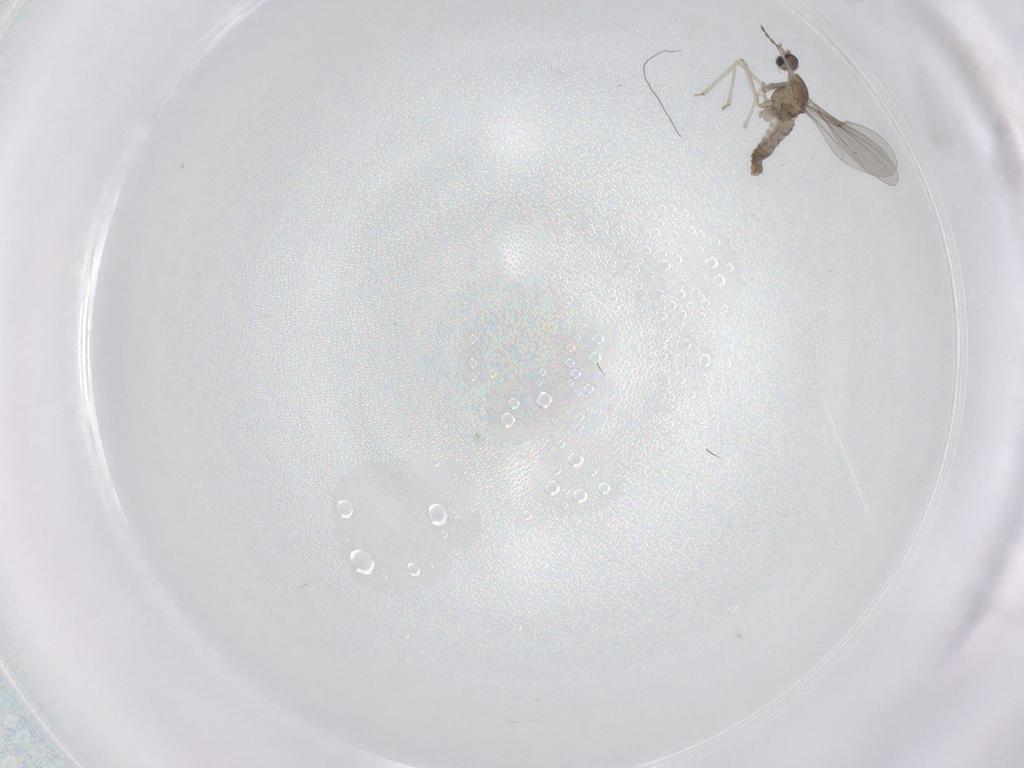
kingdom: Animalia
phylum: Arthropoda
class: Insecta
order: Diptera
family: Cecidomyiidae
